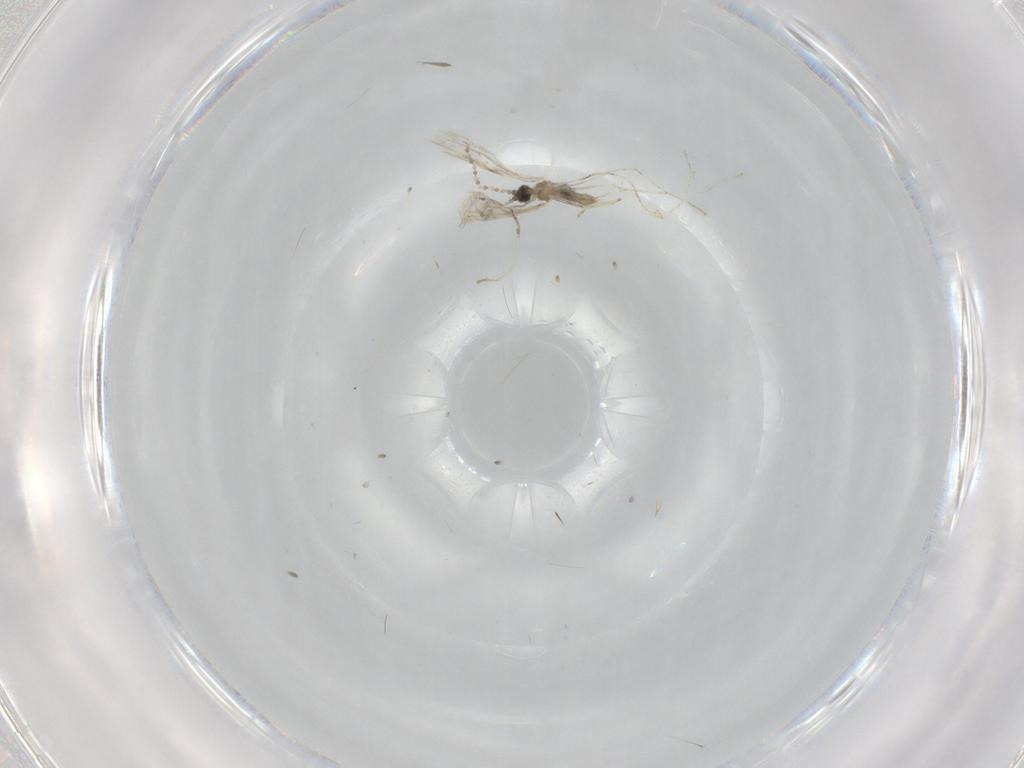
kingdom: Animalia
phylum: Arthropoda
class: Insecta
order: Diptera
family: Cecidomyiidae
